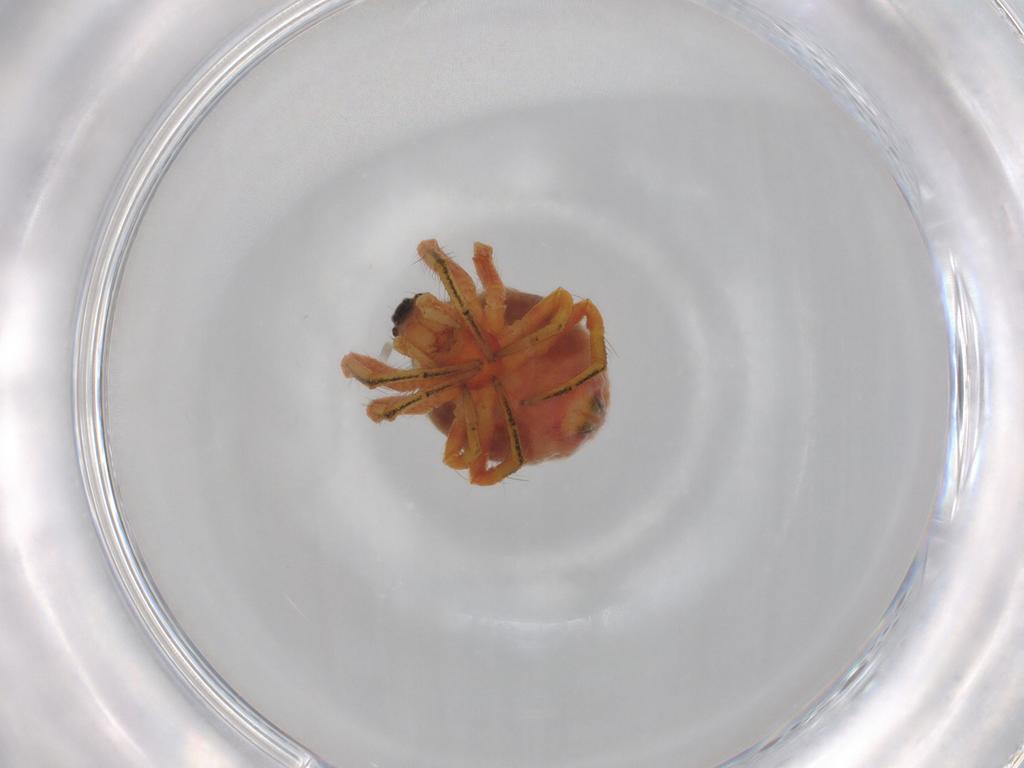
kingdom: Animalia
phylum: Arthropoda
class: Arachnida
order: Araneae
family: Araneidae
